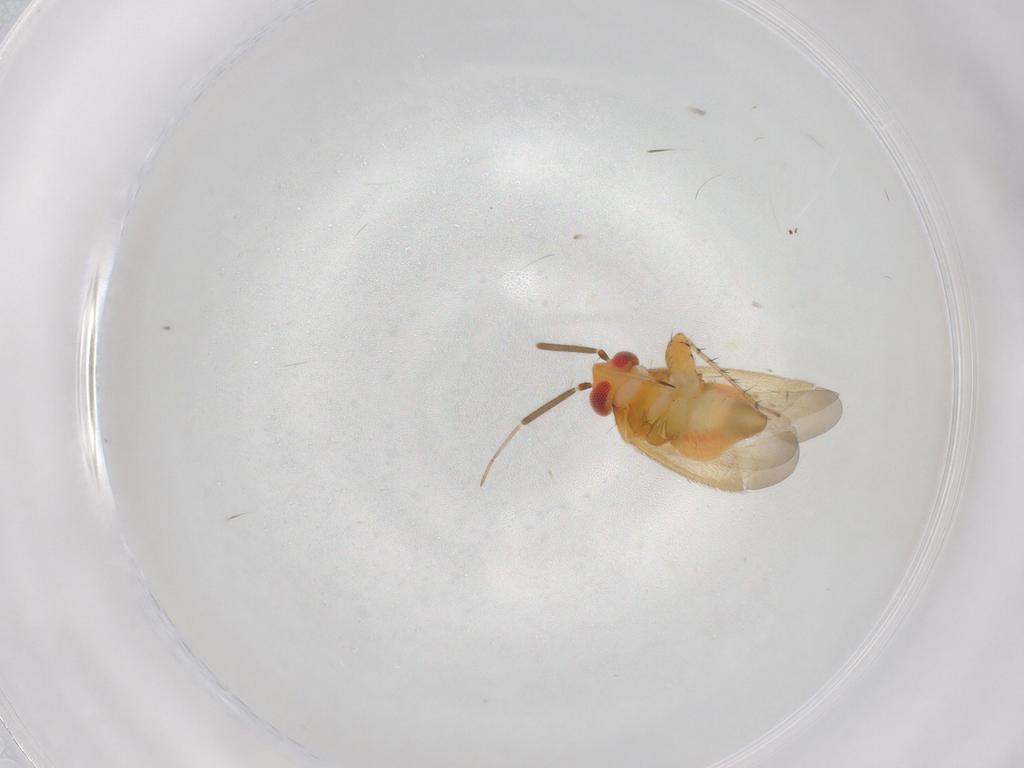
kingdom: Animalia
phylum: Arthropoda
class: Insecta
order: Hemiptera
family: Miridae
